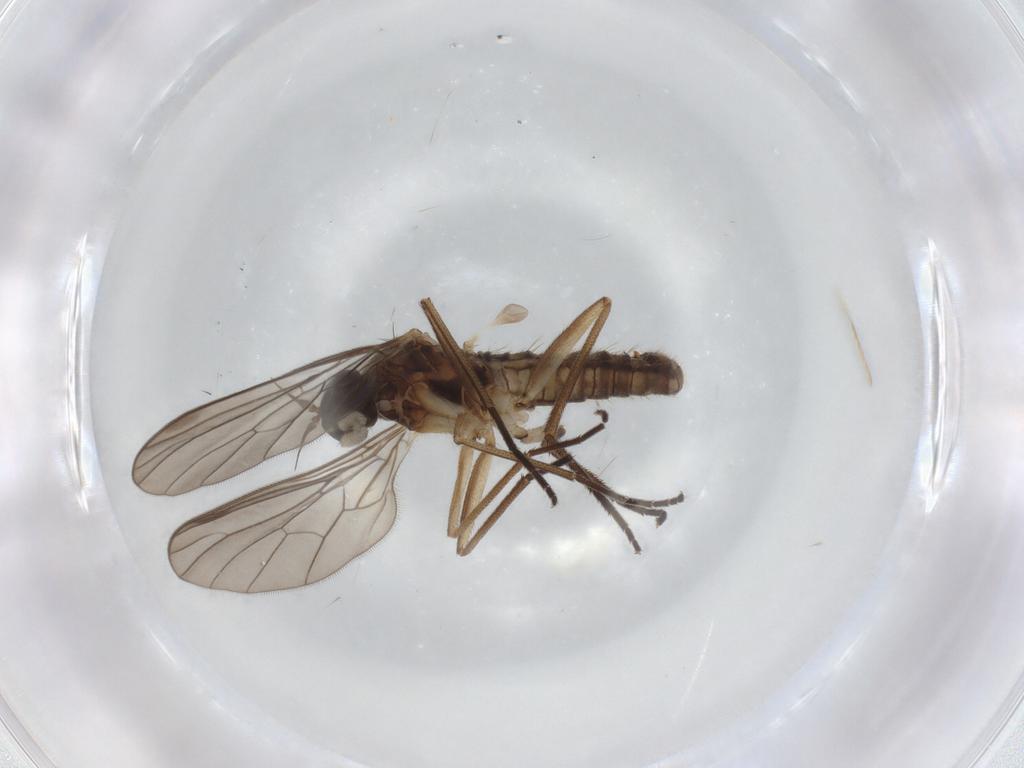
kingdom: Animalia
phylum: Arthropoda
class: Insecta
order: Diptera
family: Hybotidae
